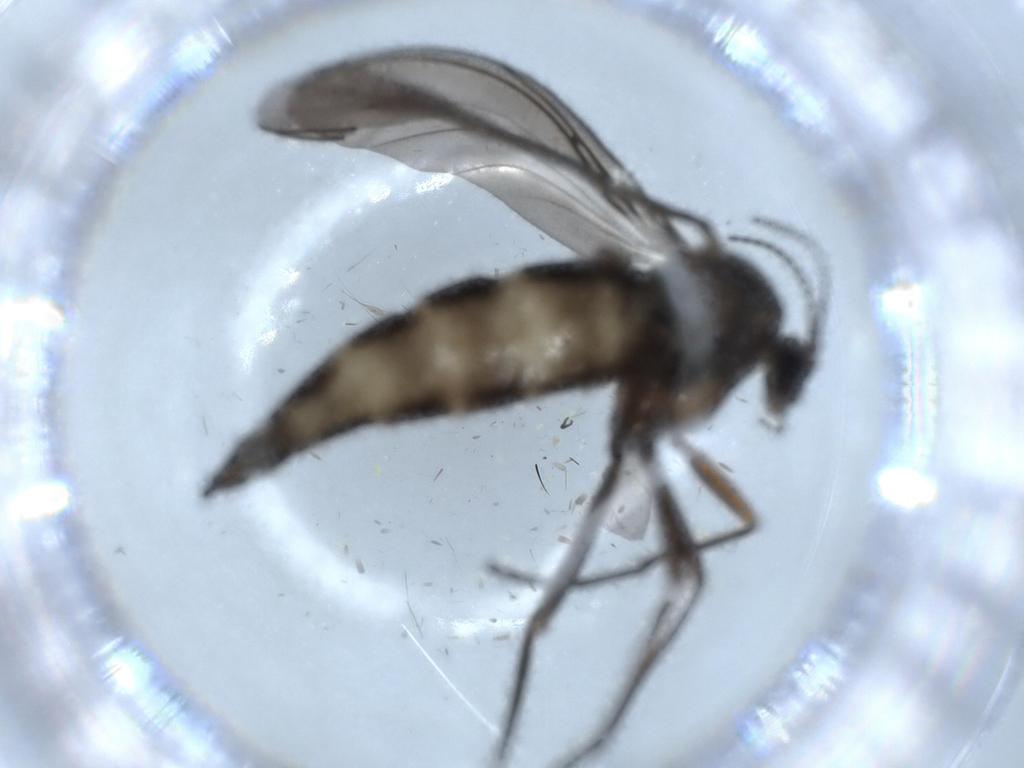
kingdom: Animalia
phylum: Arthropoda
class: Insecta
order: Diptera
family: Sciaridae
